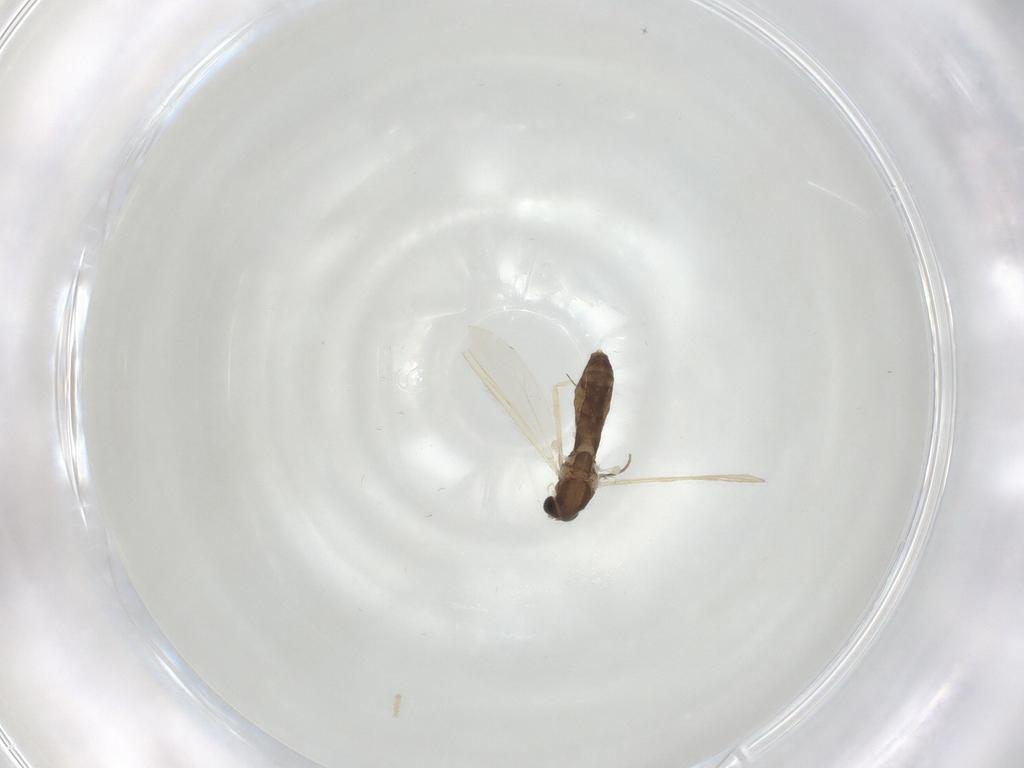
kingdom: Animalia
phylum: Arthropoda
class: Insecta
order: Diptera
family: Chironomidae
